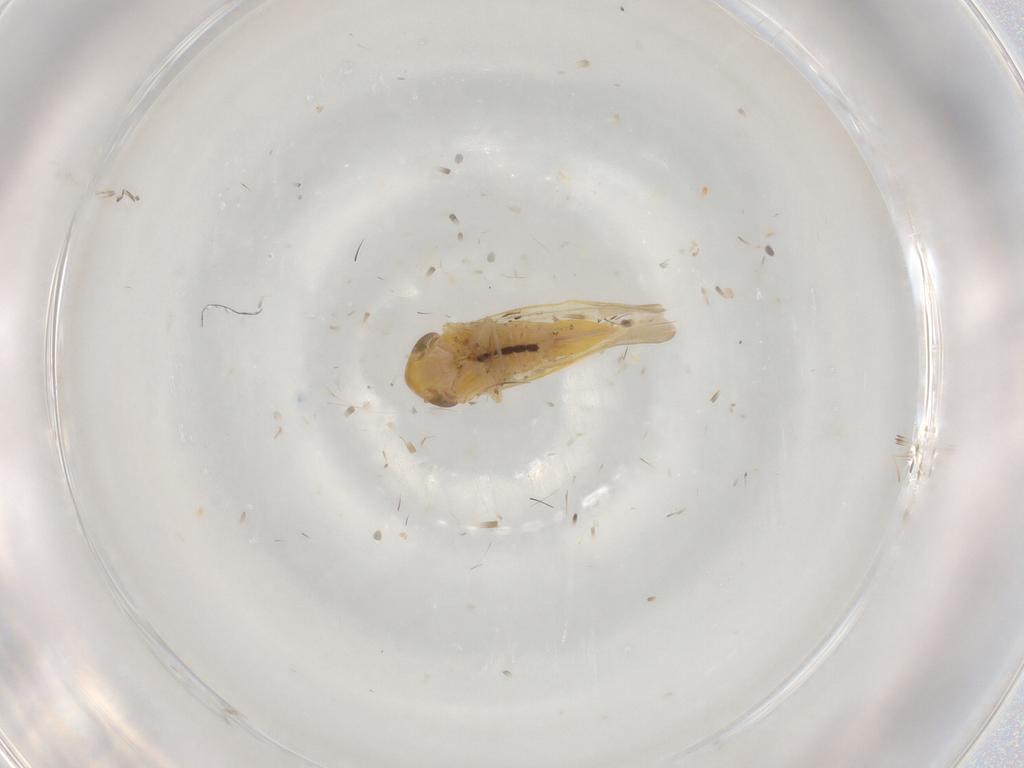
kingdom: Animalia
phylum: Arthropoda
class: Insecta
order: Hemiptera
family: Cicadellidae
